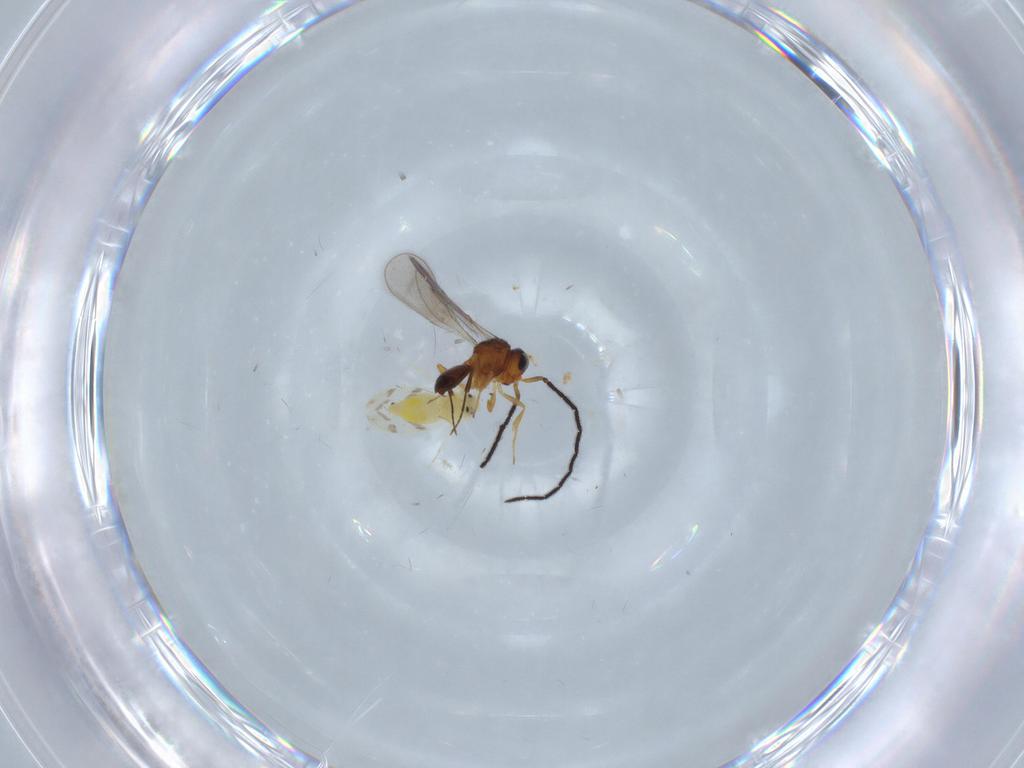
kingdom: Animalia
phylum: Arthropoda
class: Insecta
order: Hymenoptera
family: Scelionidae
